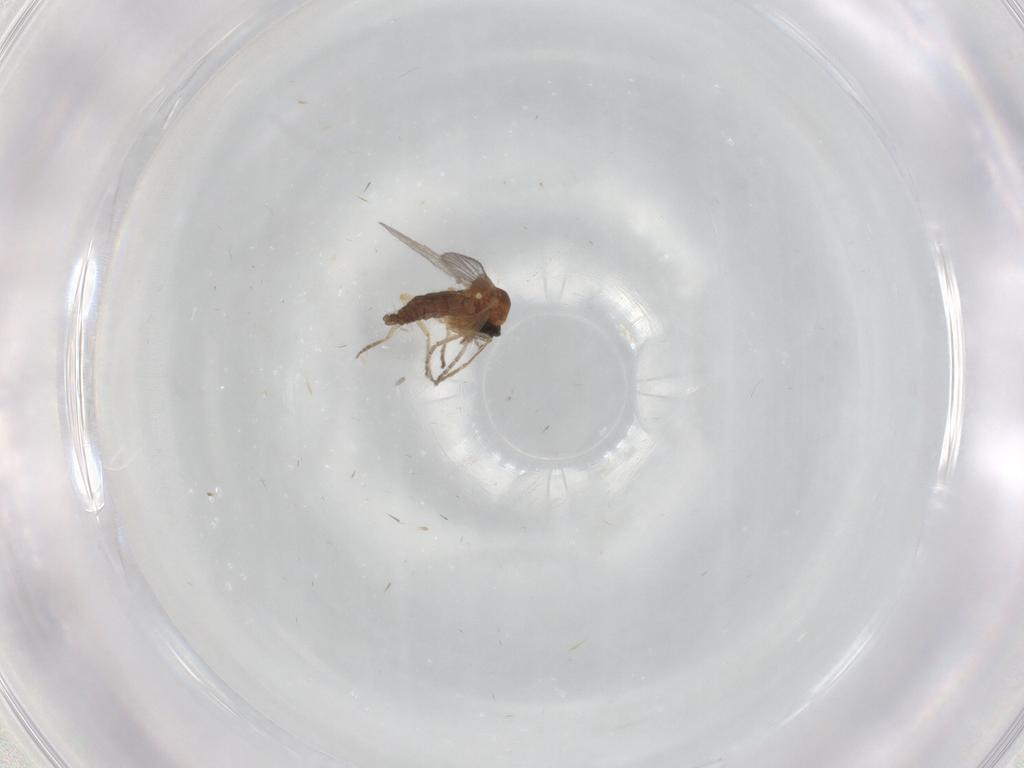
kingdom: Animalia
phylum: Arthropoda
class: Insecta
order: Diptera
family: Ceratopogonidae
